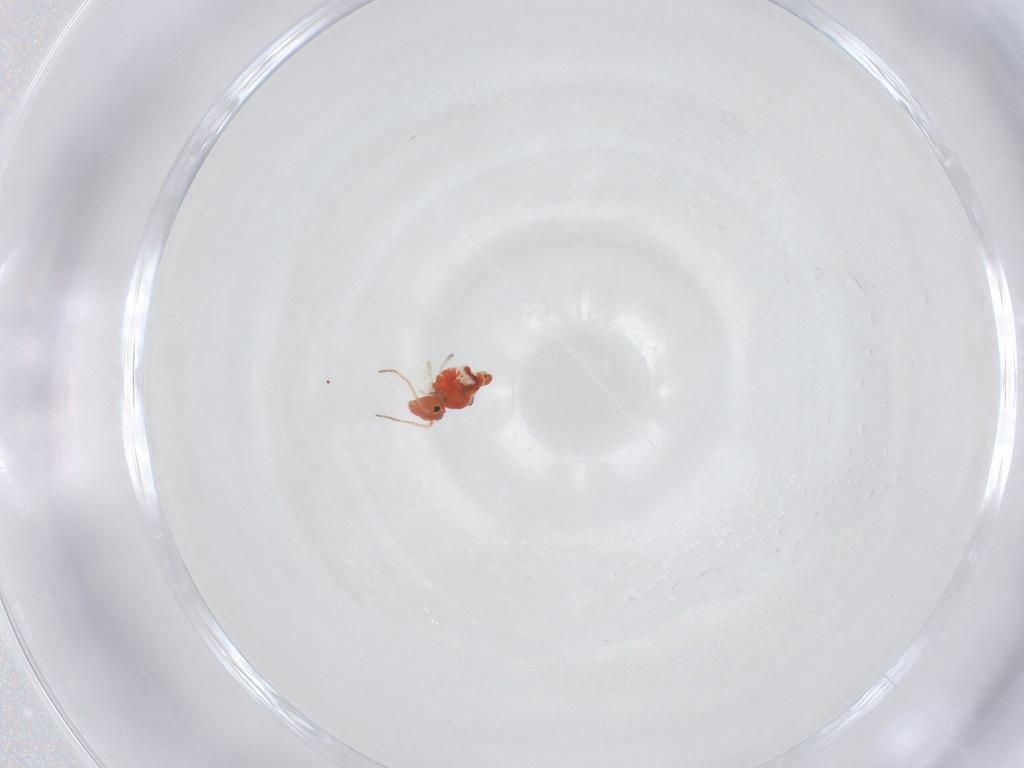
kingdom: Animalia
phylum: Arthropoda
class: Collembola
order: Symphypleona
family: Bourletiellidae
